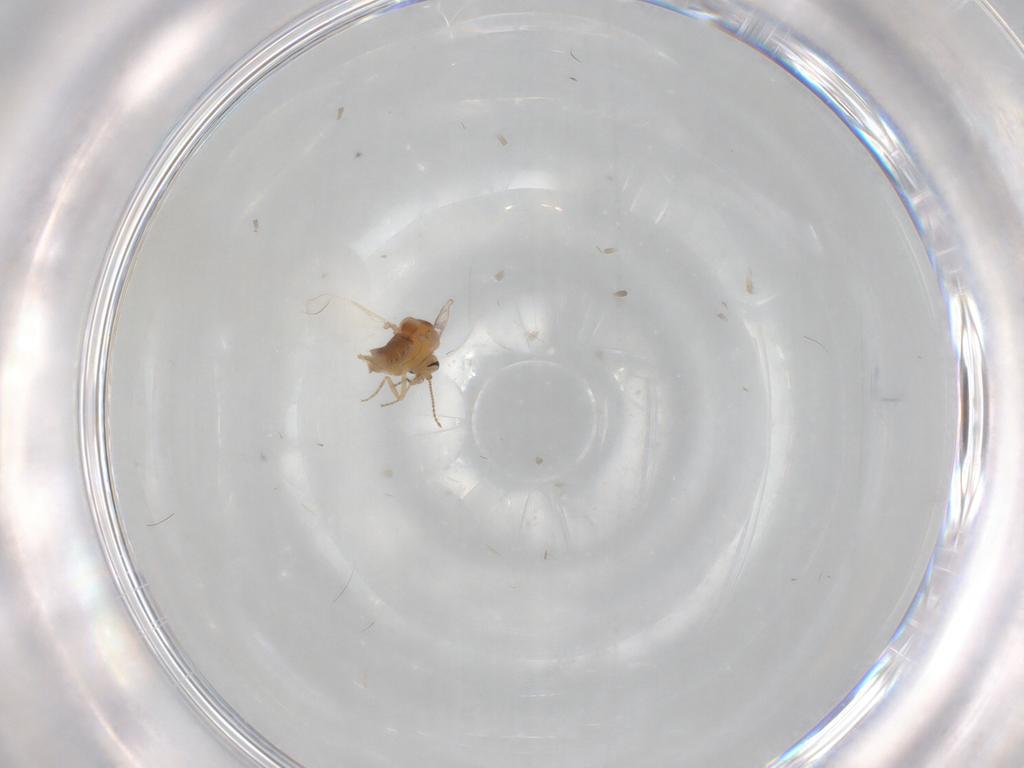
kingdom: Animalia
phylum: Arthropoda
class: Insecta
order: Diptera
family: Ceratopogonidae
